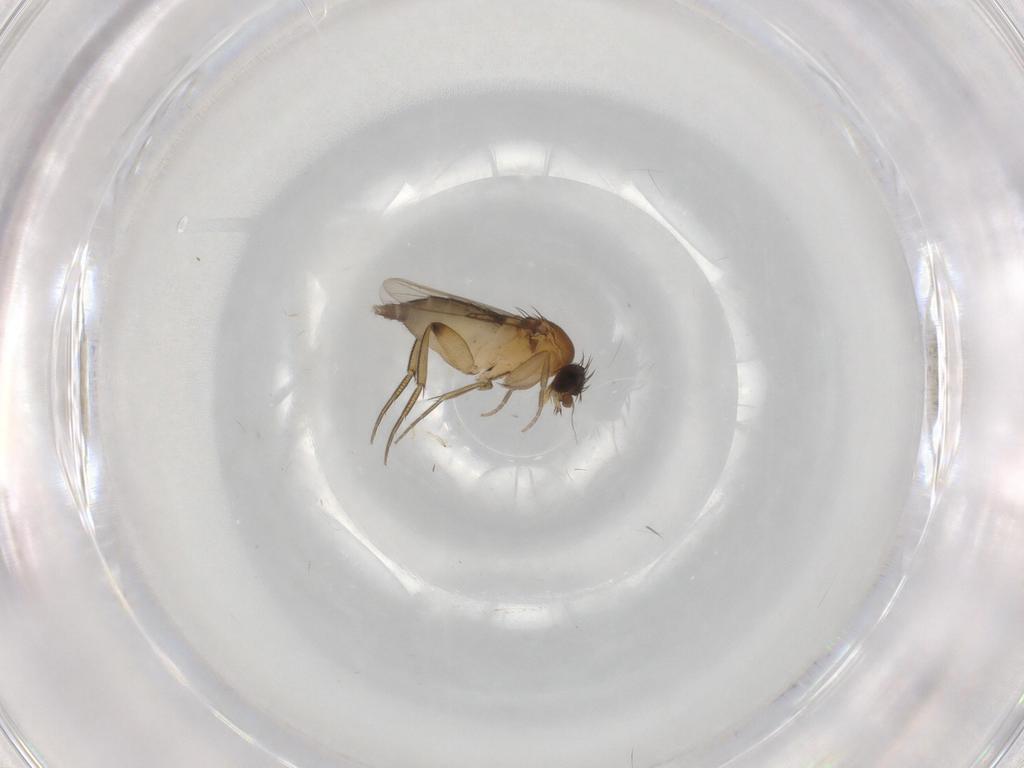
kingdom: Animalia
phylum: Arthropoda
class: Insecta
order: Diptera
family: Phoridae
